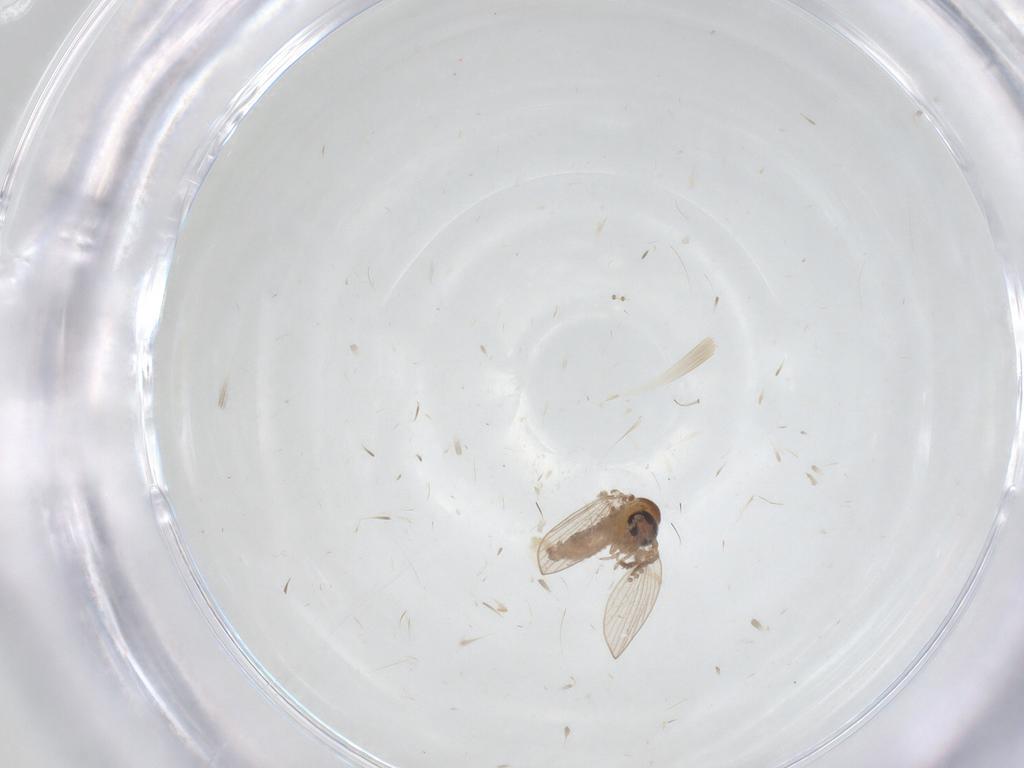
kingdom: Animalia
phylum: Arthropoda
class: Insecta
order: Diptera
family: Psychodidae
